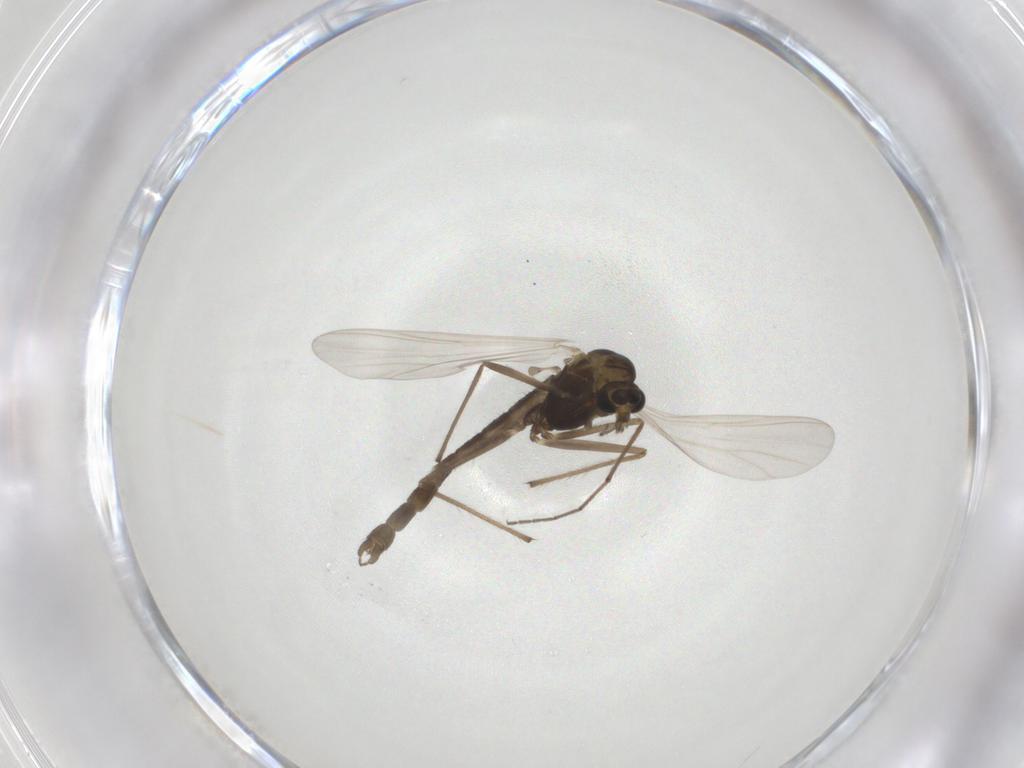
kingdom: Animalia
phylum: Arthropoda
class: Insecta
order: Diptera
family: Chironomidae
